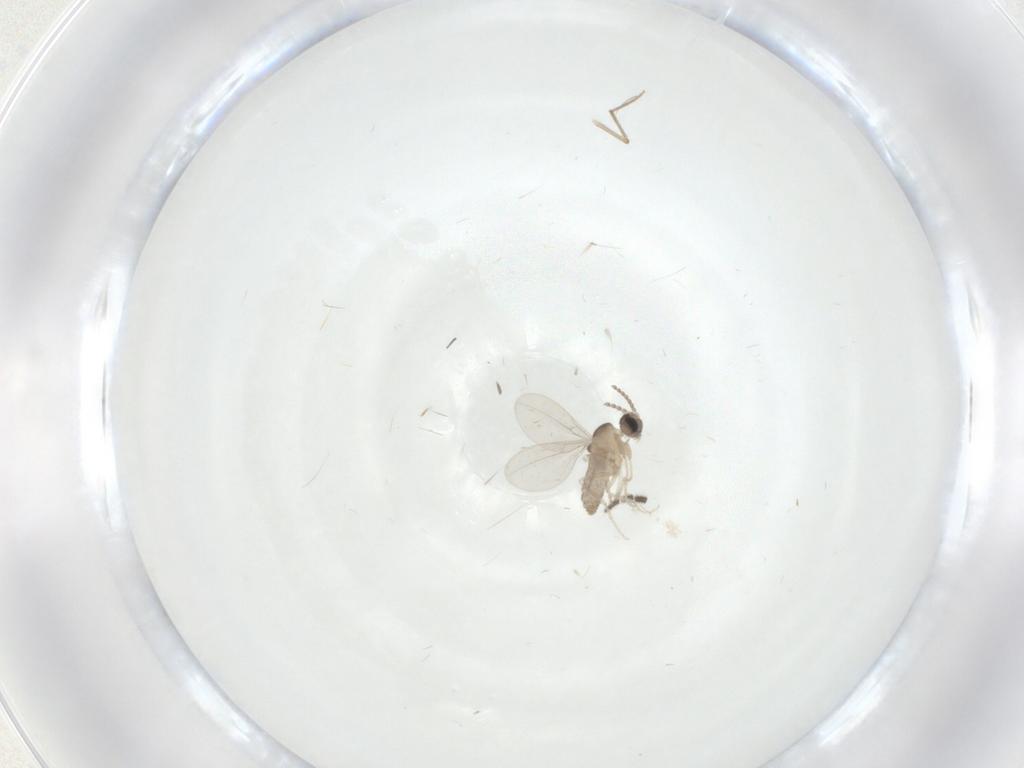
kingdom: Animalia
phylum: Arthropoda
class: Insecta
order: Diptera
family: Cecidomyiidae
